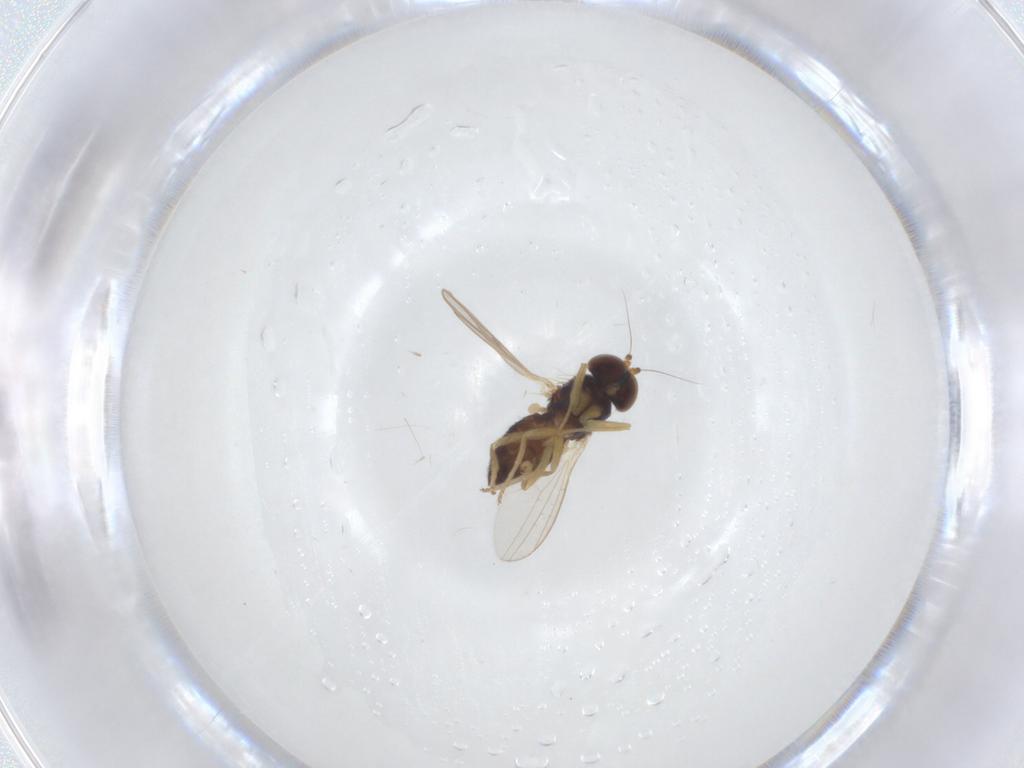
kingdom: Animalia
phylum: Arthropoda
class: Insecta
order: Diptera
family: Dolichopodidae
